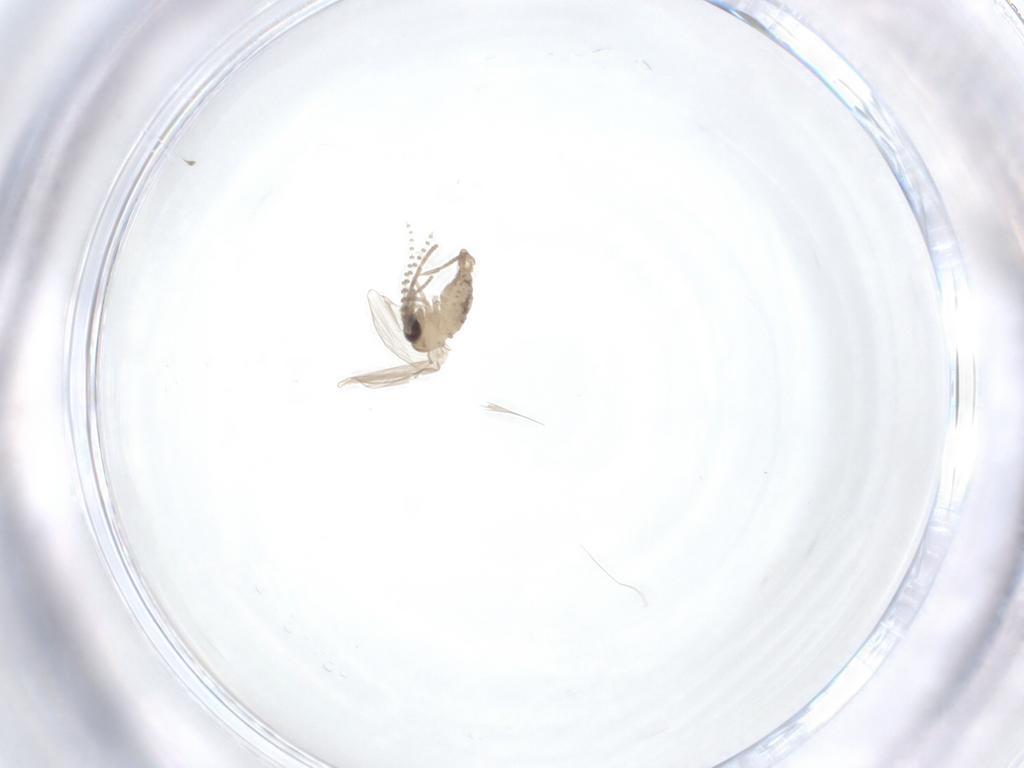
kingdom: Animalia
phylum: Arthropoda
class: Insecta
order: Diptera
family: Psychodidae
